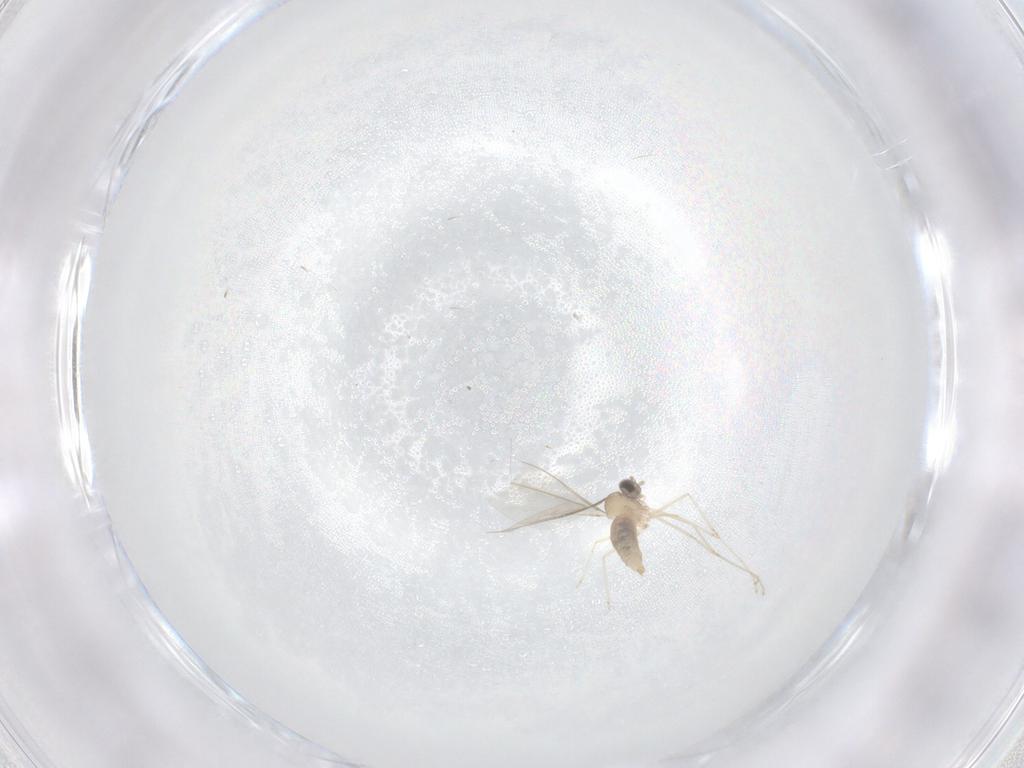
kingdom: Animalia
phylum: Arthropoda
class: Insecta
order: Diptera
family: Cecidomyiidae
